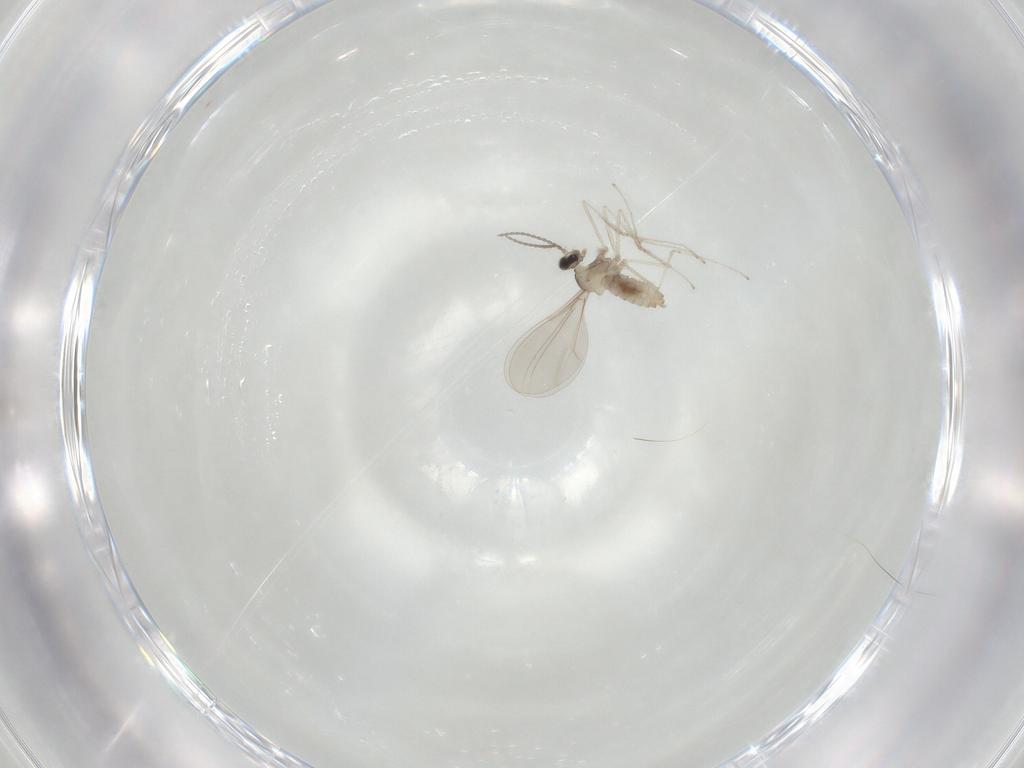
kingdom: Animalia
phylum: Arthropoda
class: Insecta
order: Diptera
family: Cecidomyiidae
